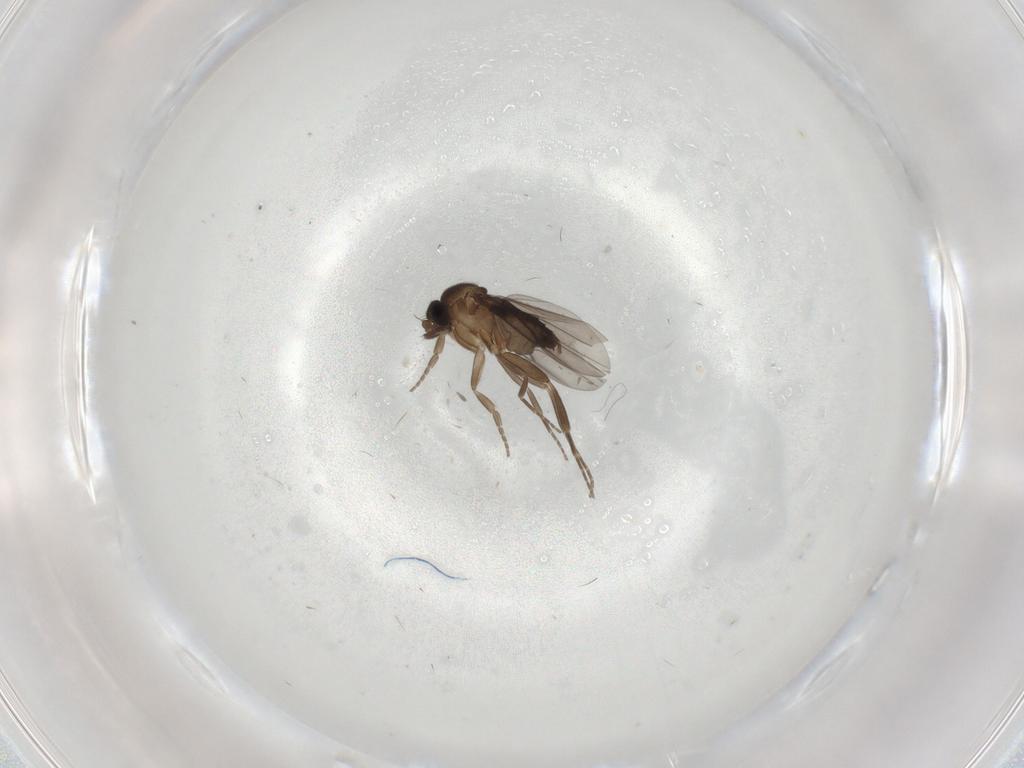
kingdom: Animalia
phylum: Arthropoda
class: Insecta
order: Diptera
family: Chironomidae
